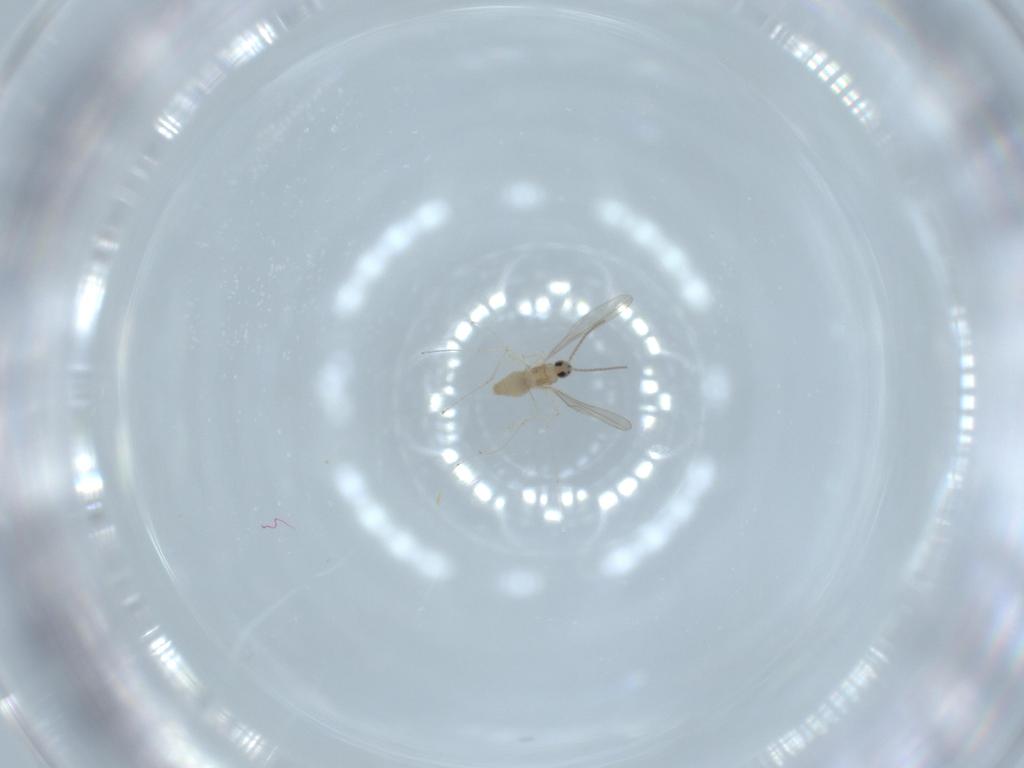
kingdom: Animalia
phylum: Arthropoda
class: Insecta
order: Diptera
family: Cecidomyiidae
